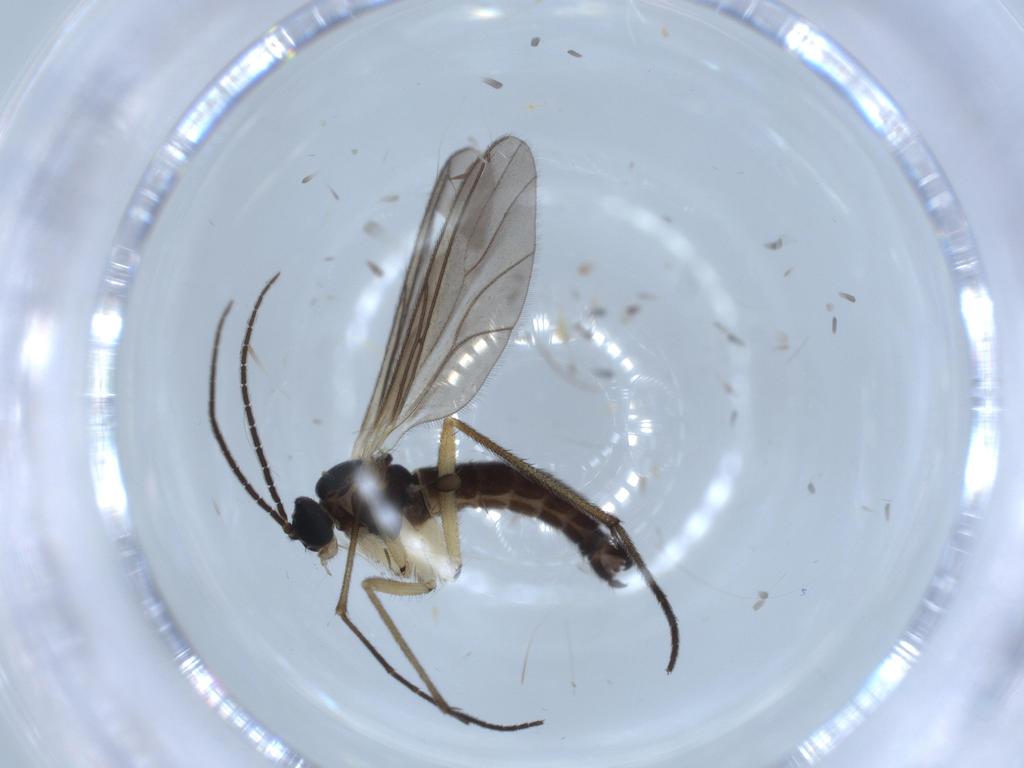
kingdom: Animalia
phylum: Arthropoda
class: Insecta
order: Diptera
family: Sciaridae
